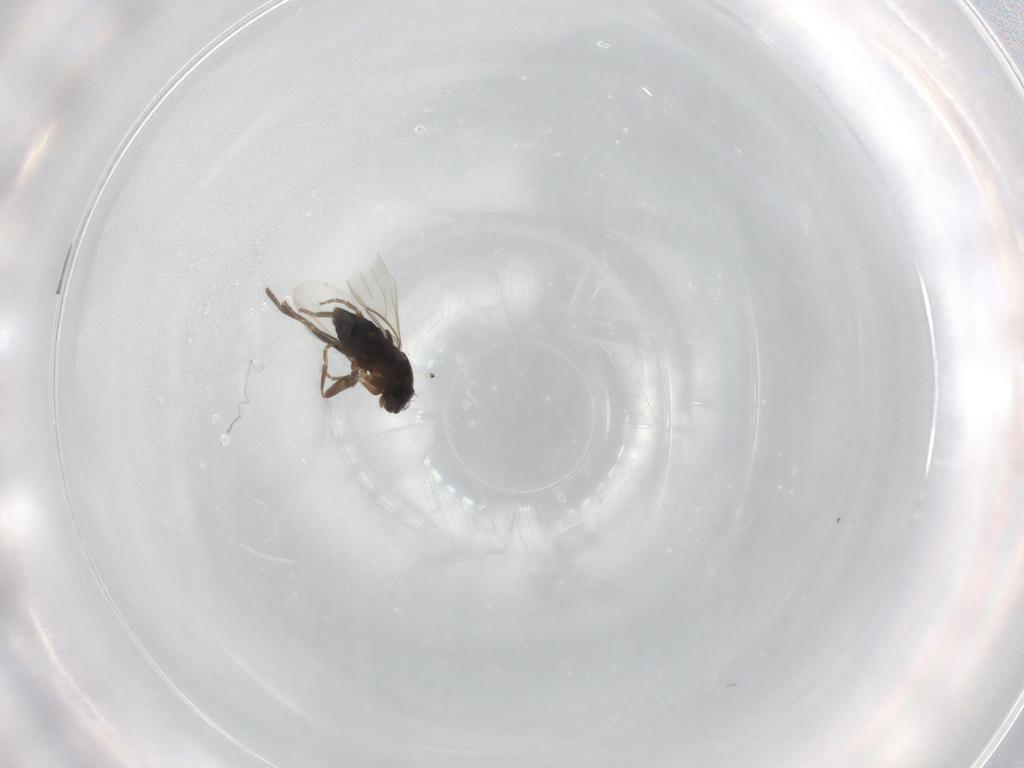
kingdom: Animalia
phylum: Arthropoda
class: Insecta
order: Diptera
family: Agromyzidae
